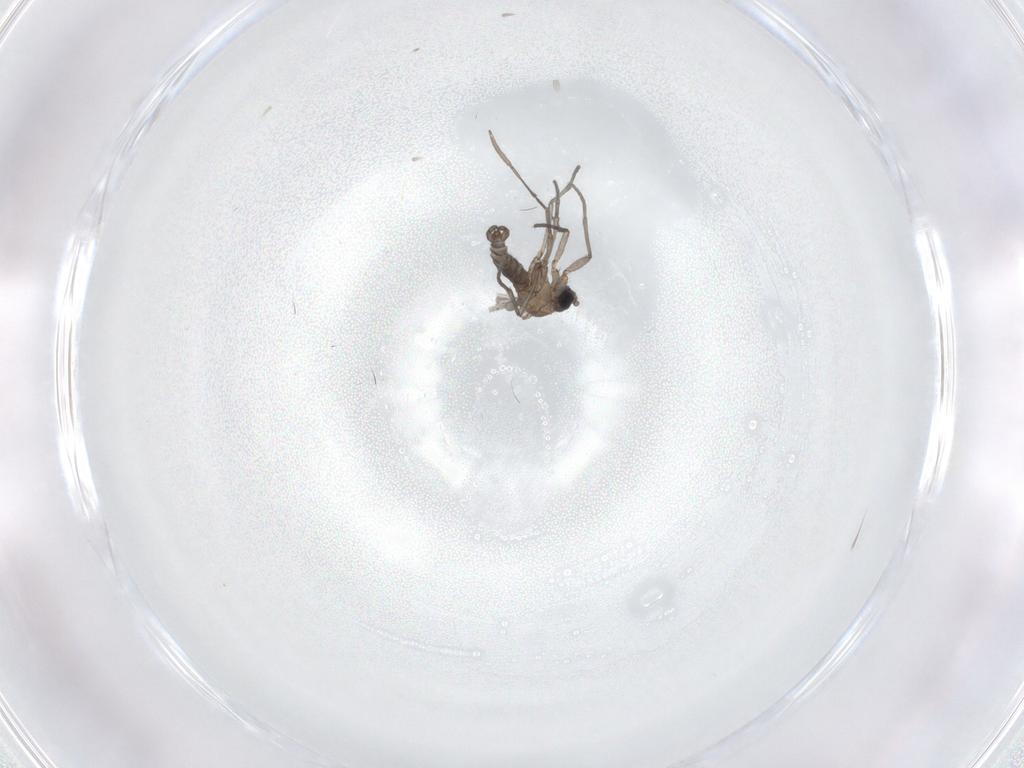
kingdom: Animalia
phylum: Arthropoda
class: Insecta
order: Diptera
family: Sciaridae
